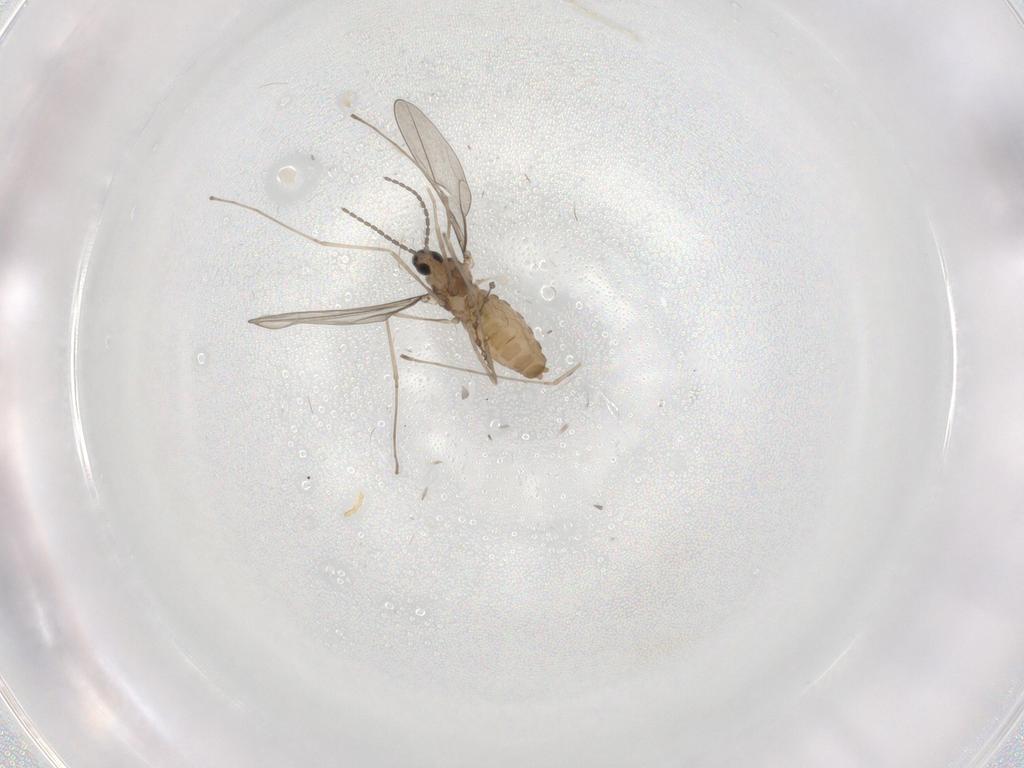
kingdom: Animalia
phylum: Arthropoda
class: Insecta
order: Diptera
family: Cecidomyiidae
